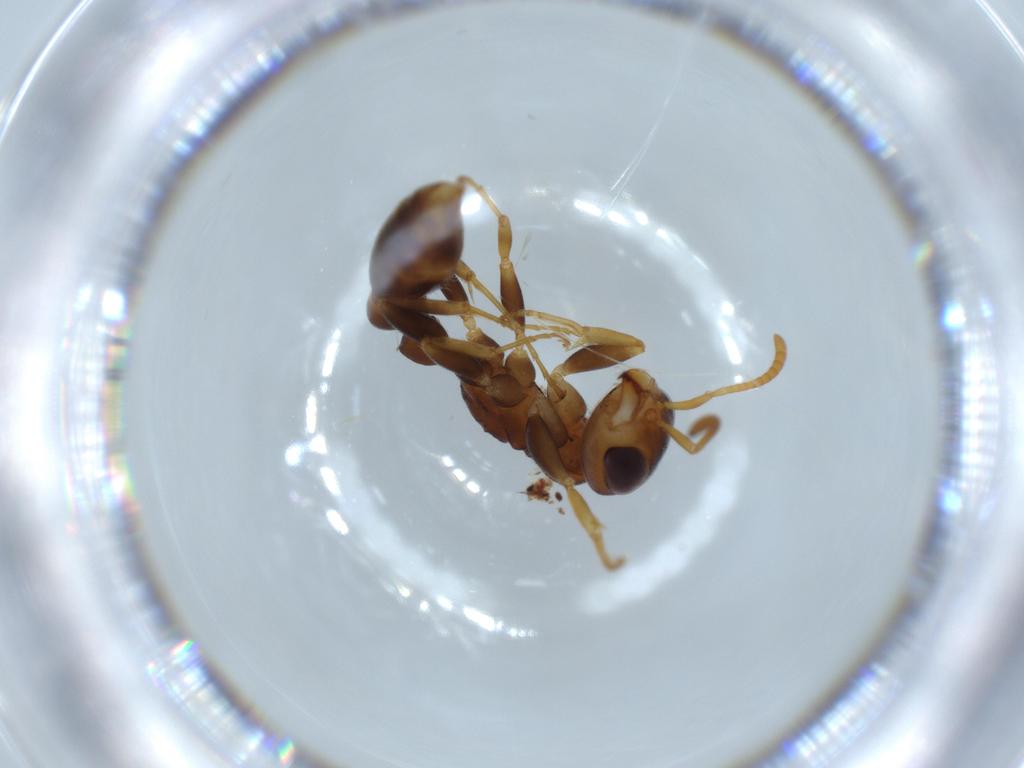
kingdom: Animalia
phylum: Arthropoda
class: Insecta
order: Hymenoptera
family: Formicidae
